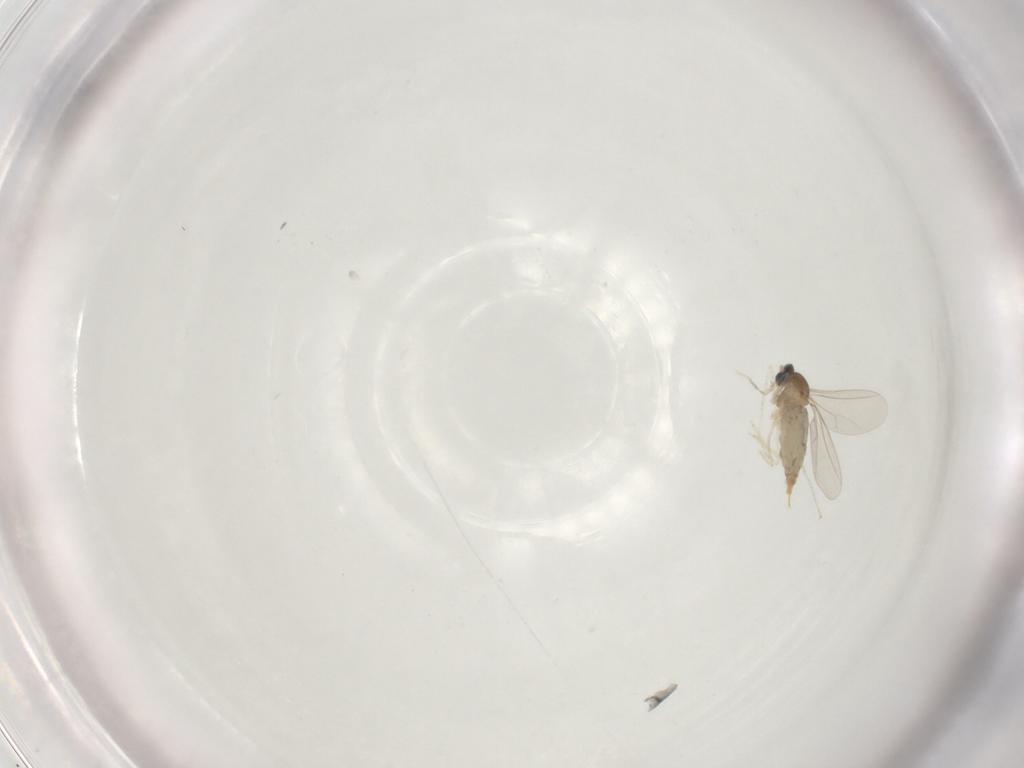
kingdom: Animalia
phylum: Arthropoda
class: Insecta
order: Diptera
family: Cecidomyiidae
